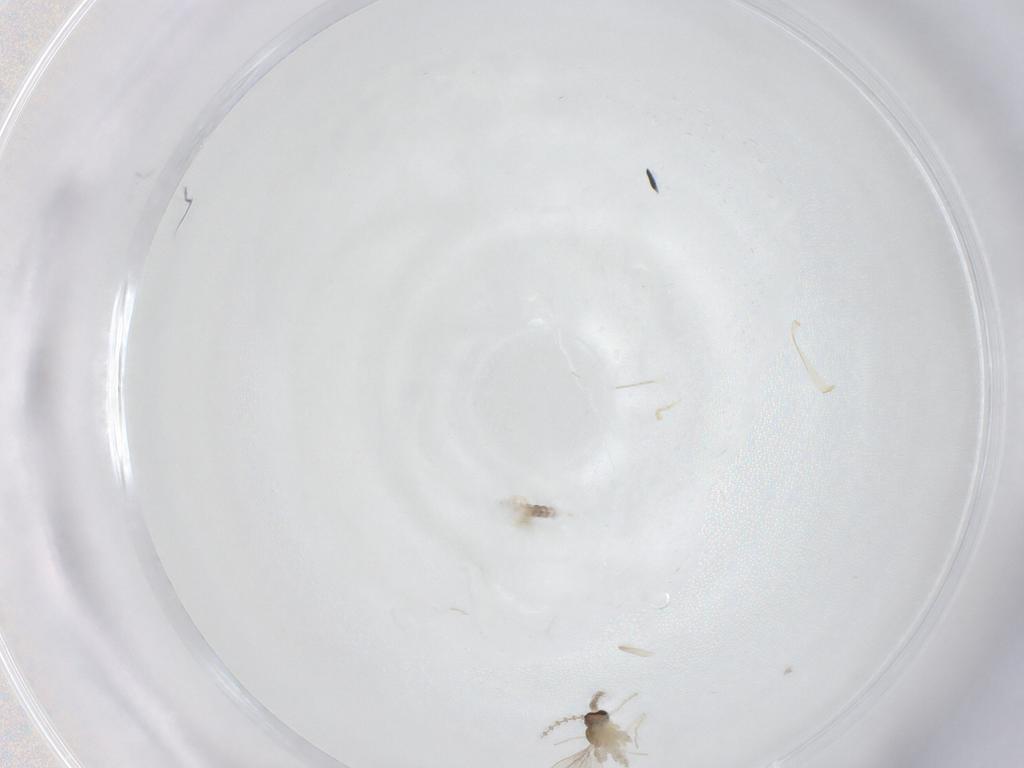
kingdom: Animalia
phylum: Arthropoda
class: Insecta
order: Diptera
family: Cecidomyiidae
